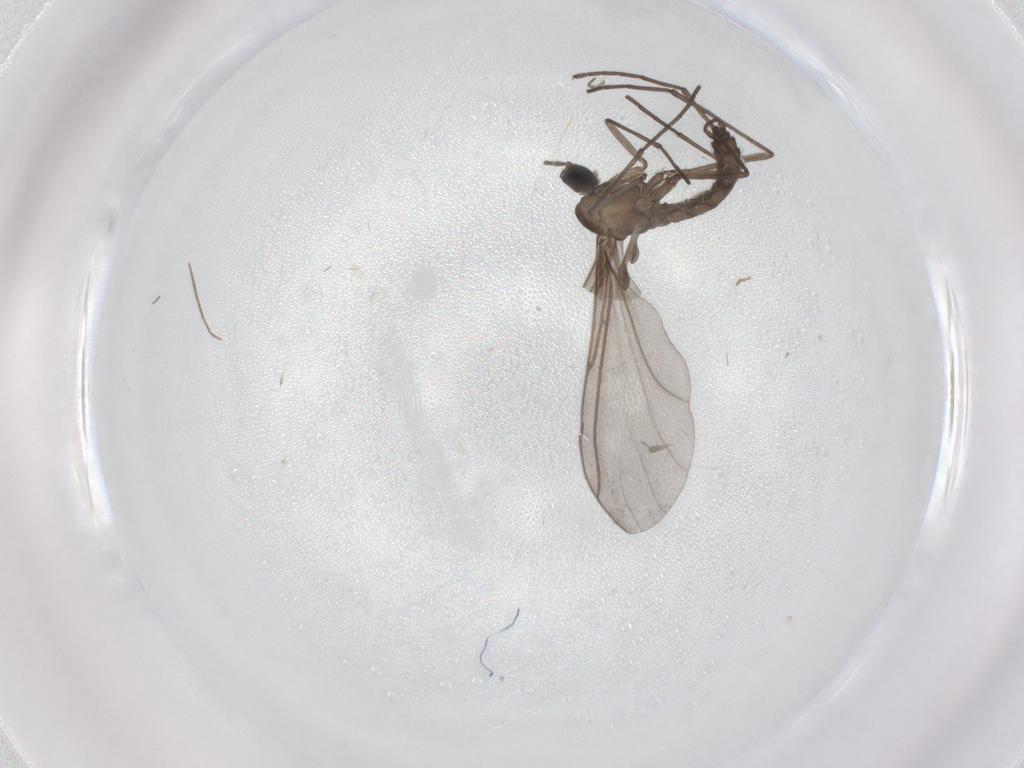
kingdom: Animalia
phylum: Arthropoda
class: Insecta
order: Diptera
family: Chironomidae
